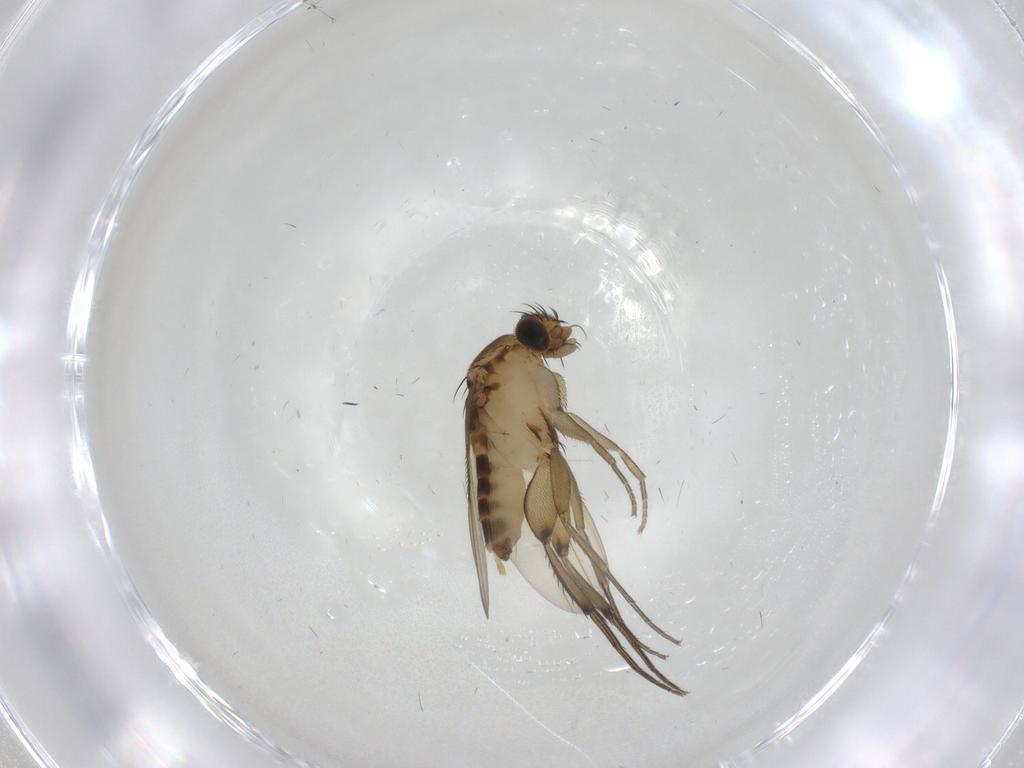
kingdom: Animalia
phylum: Arthropoda
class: Insecta
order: Diptera
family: Phoridae
